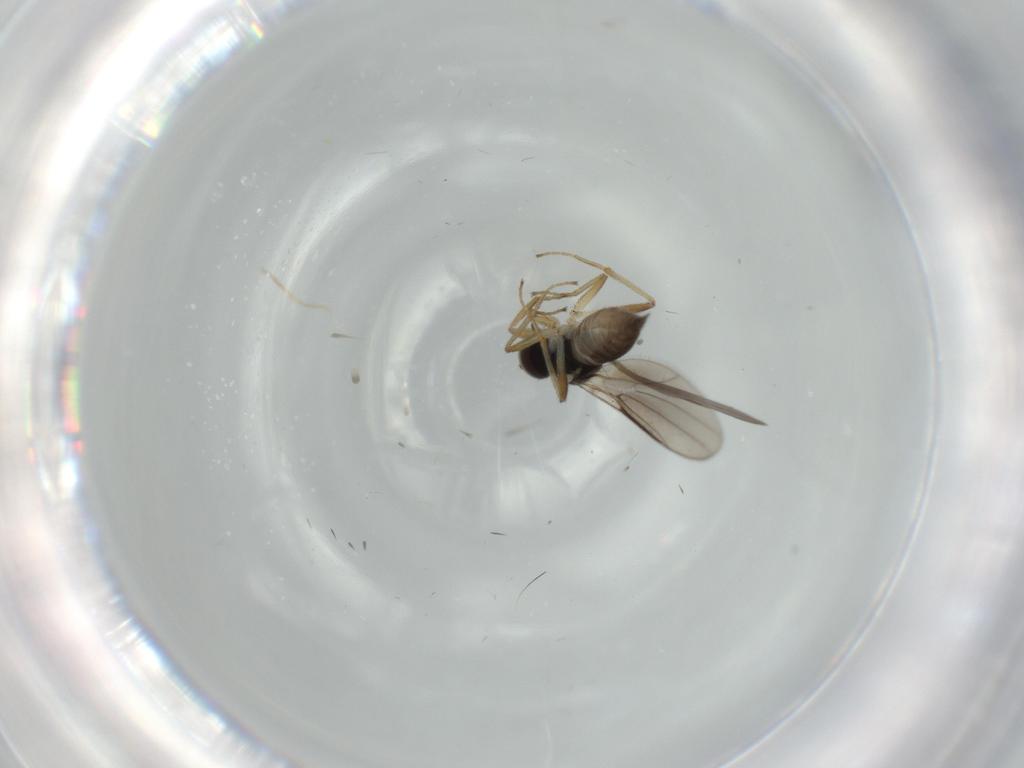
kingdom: Animalia
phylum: Arthropoda
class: Insecta
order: Diptera
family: Hybotidae
